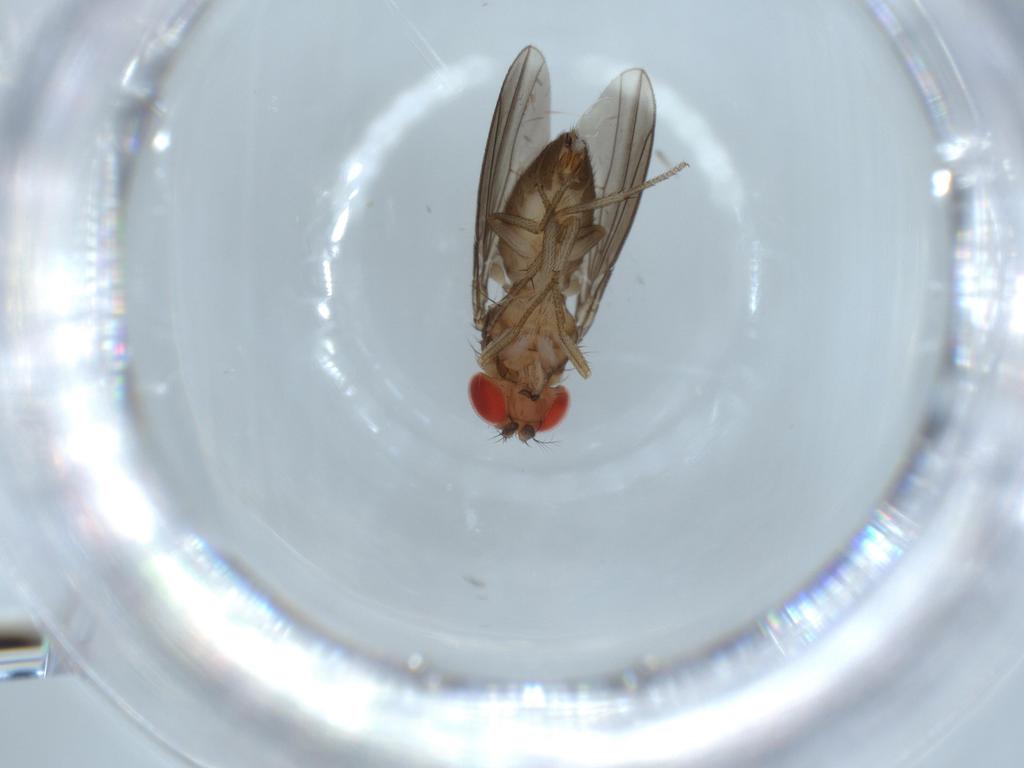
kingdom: Animalia
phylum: Arthropoda
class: Insecta
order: Diptera
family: Drosophilidae
